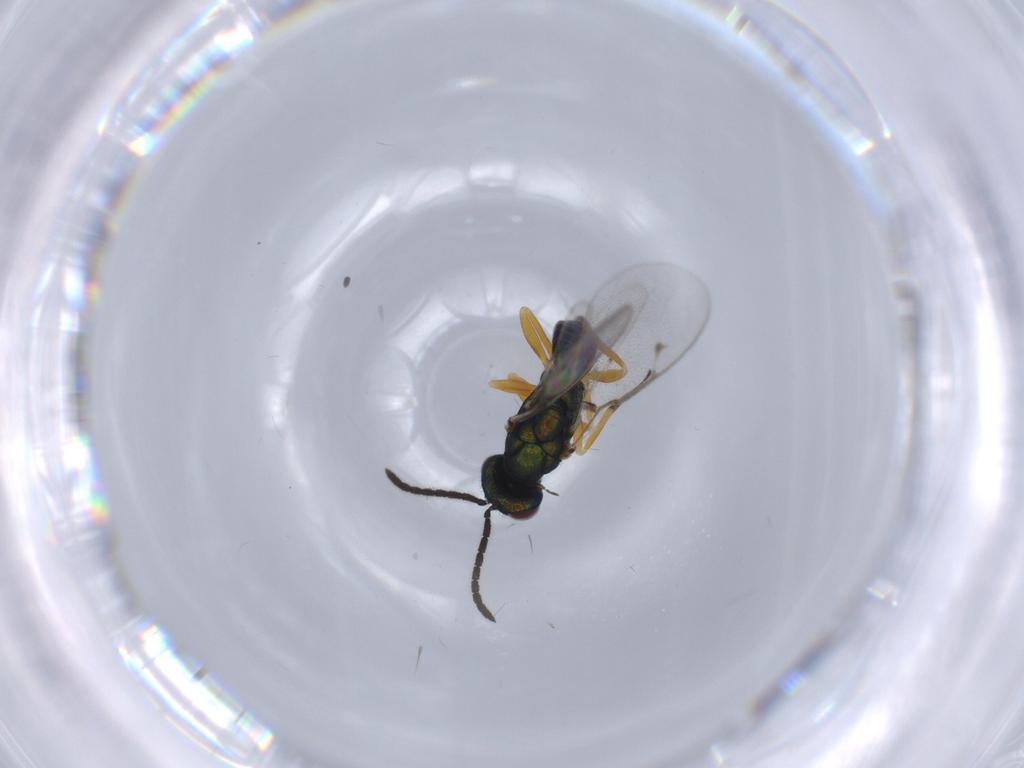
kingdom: Animalia
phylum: Arthropoda
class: Insecta
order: Hymenoptera
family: Pteromalidae
